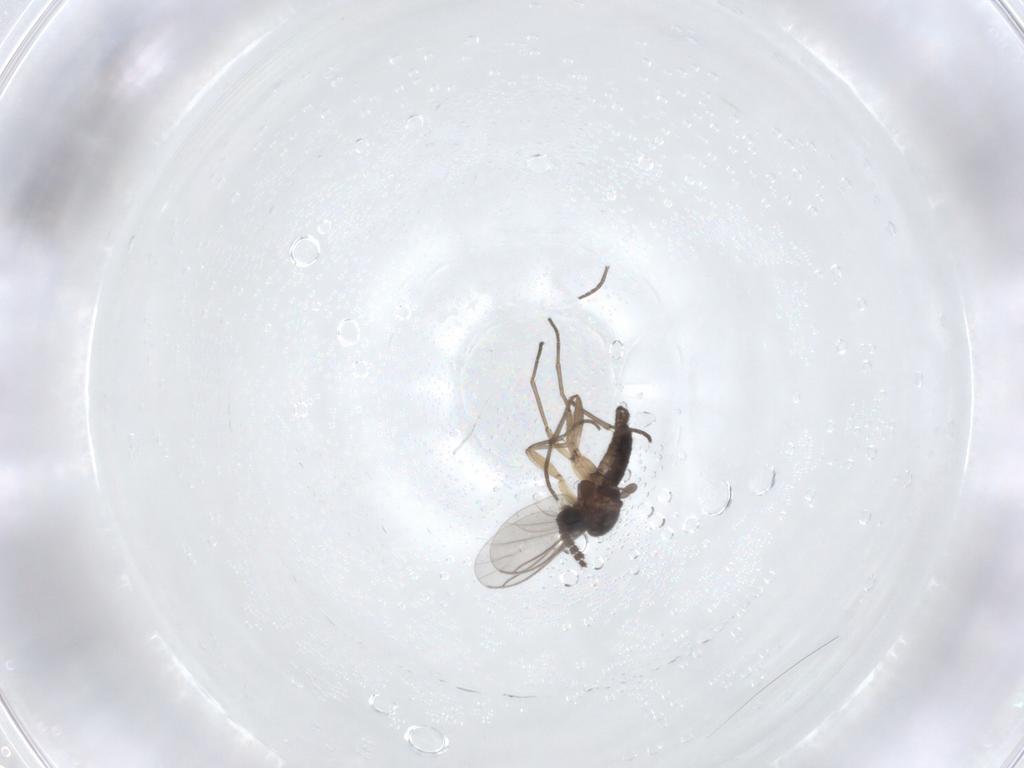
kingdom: Animalia
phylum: Arthropoda
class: Insecta
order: Diptera
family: Sciaridae
